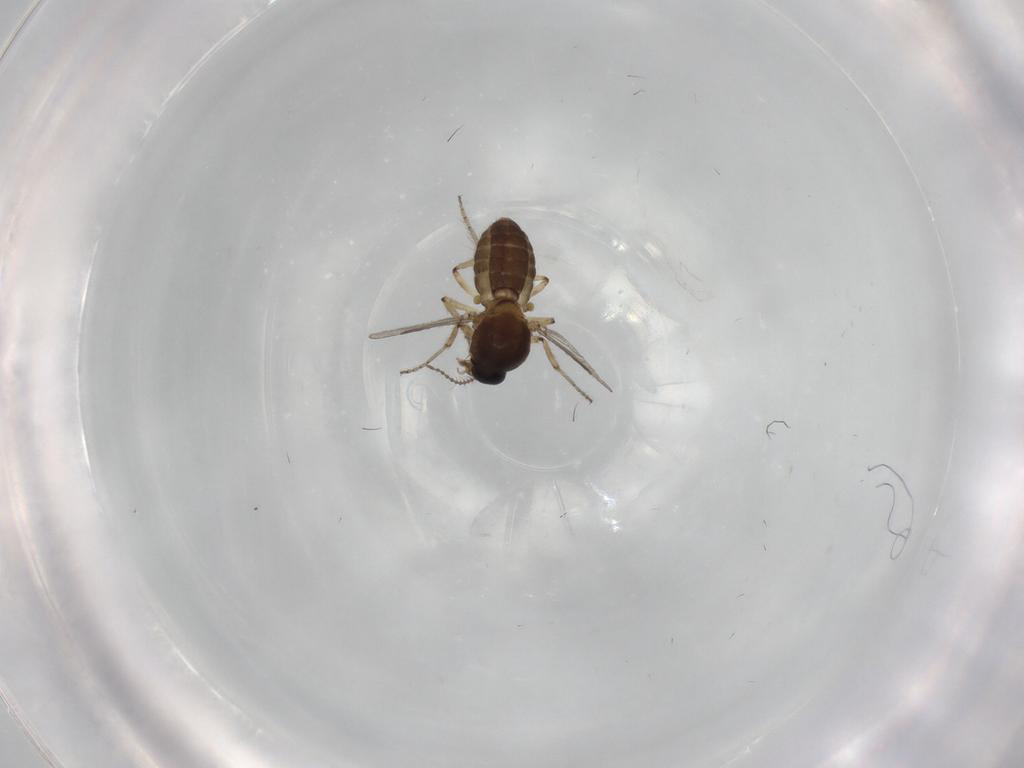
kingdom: Animalia
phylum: Arthropoda
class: Insecta
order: Diptera
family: Ceratopogonidae
